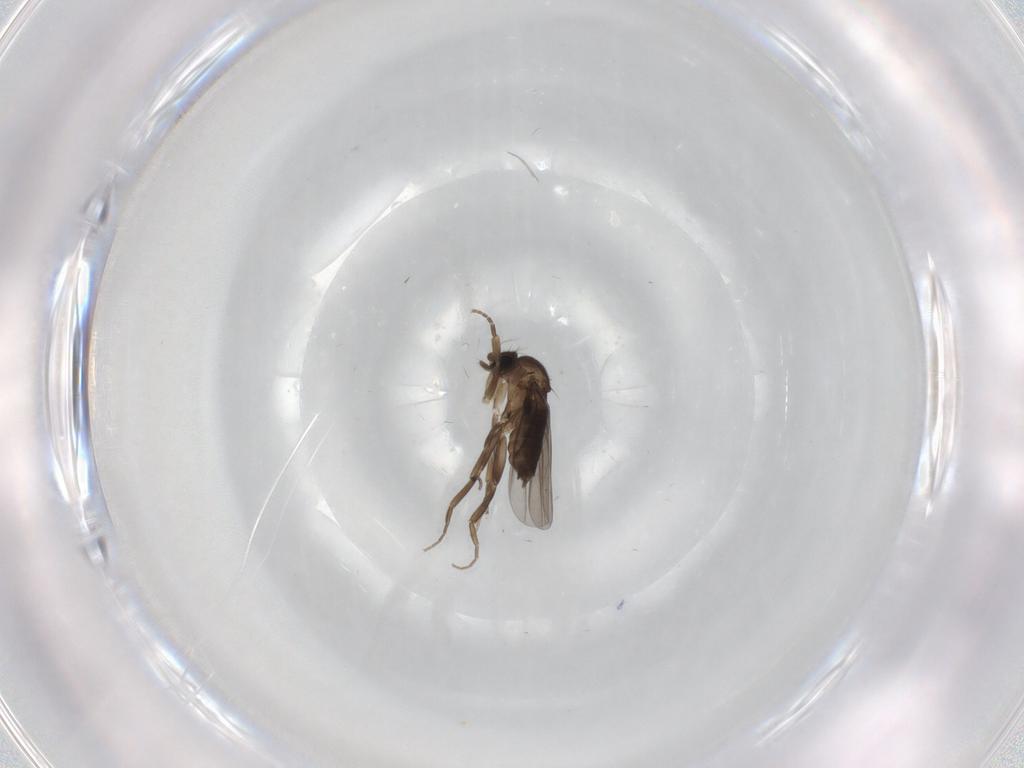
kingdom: Animalia
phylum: Arthropoda
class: Insecta
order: Diptera
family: Phoridae
